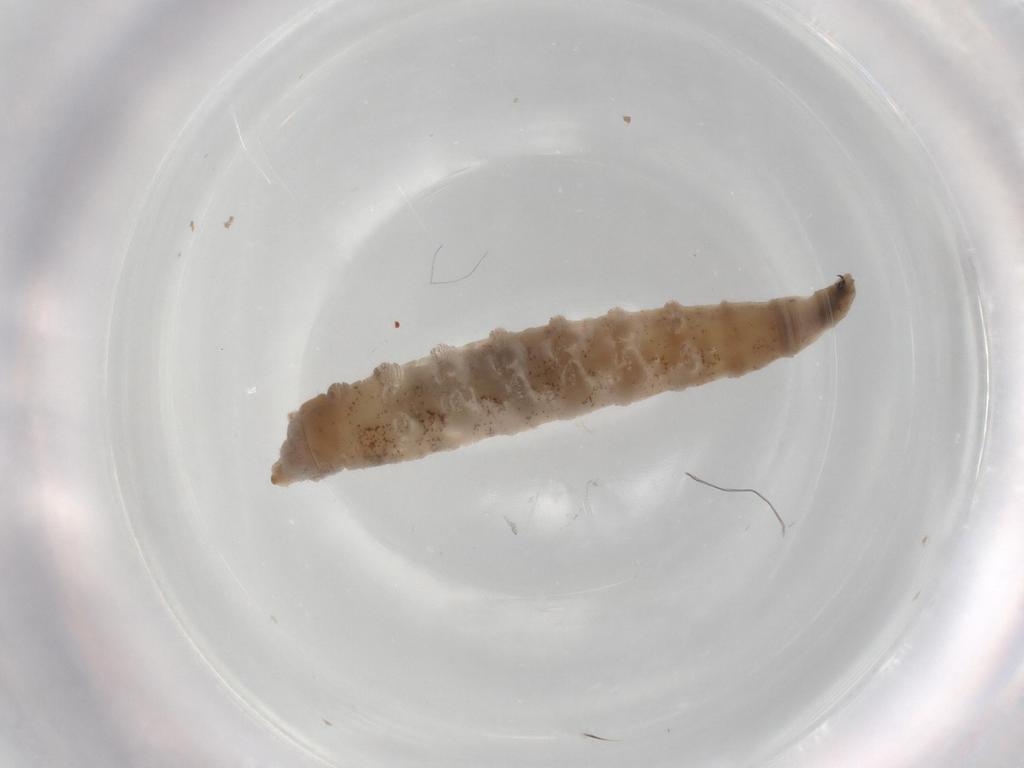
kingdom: Animalia
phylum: Arthropoda
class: Insecta
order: Diptera
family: Drosophilidae
